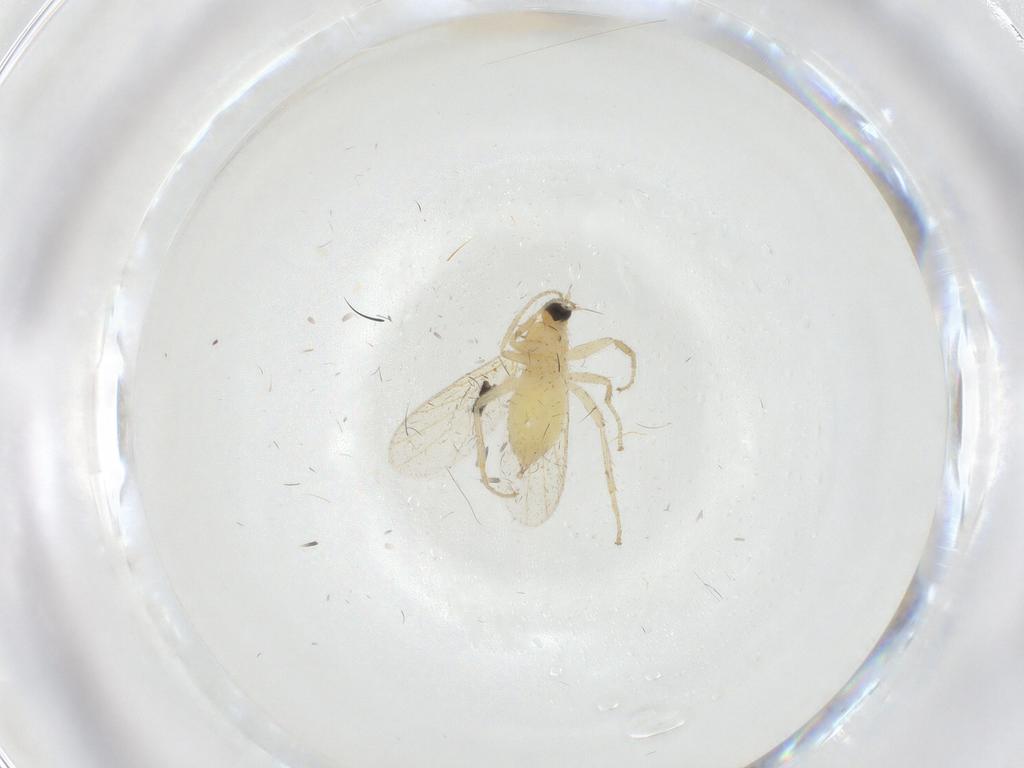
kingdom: Animalia
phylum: Arthropoda
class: Insecta
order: Diptera
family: Hybotidae
